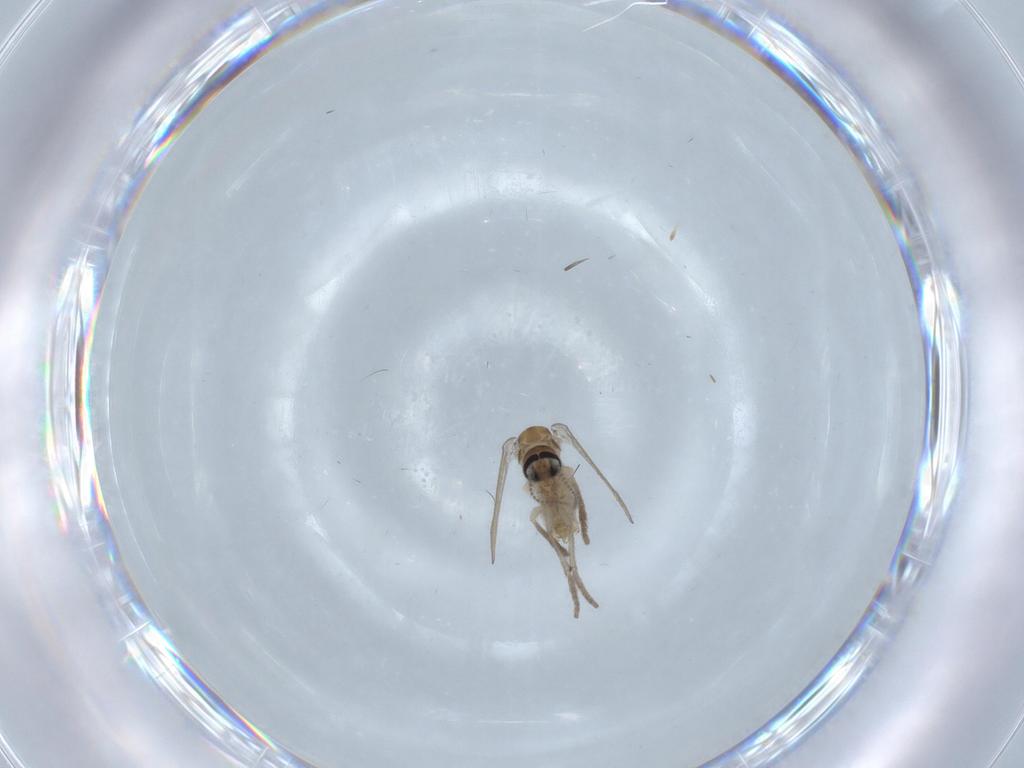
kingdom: Animalia
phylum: Arthropoda
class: Insecta
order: Diptera
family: Psychodidae
